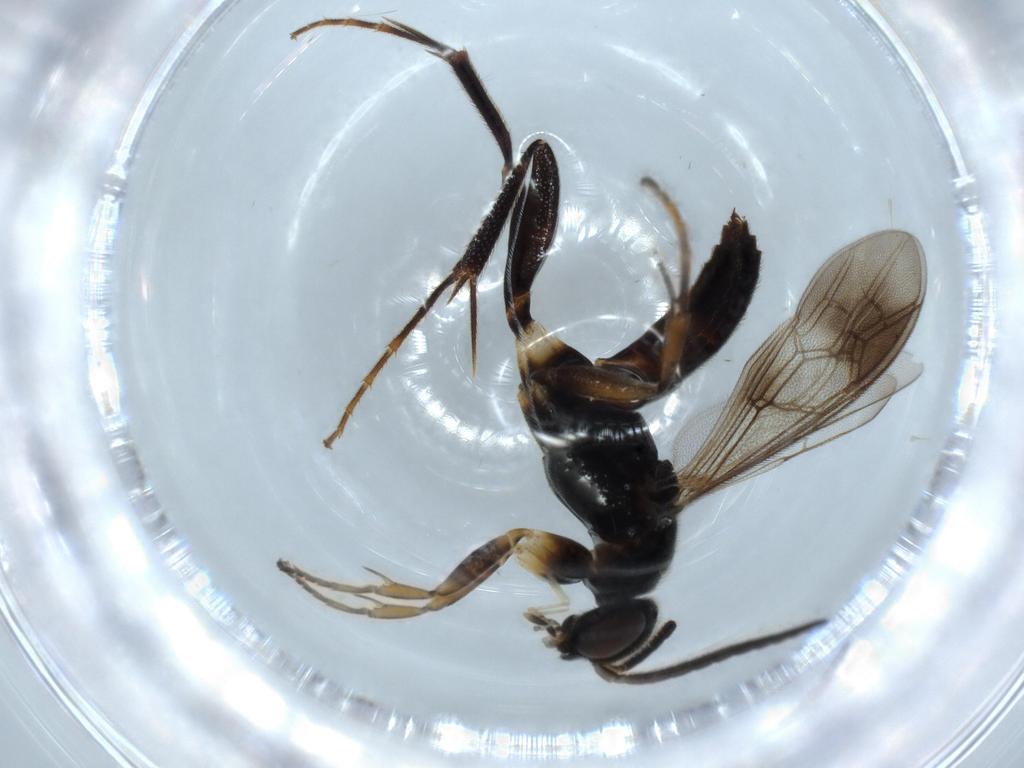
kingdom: Animalia
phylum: Arthropoda
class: Insecta
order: Hymenoptera
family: Pompilidae
